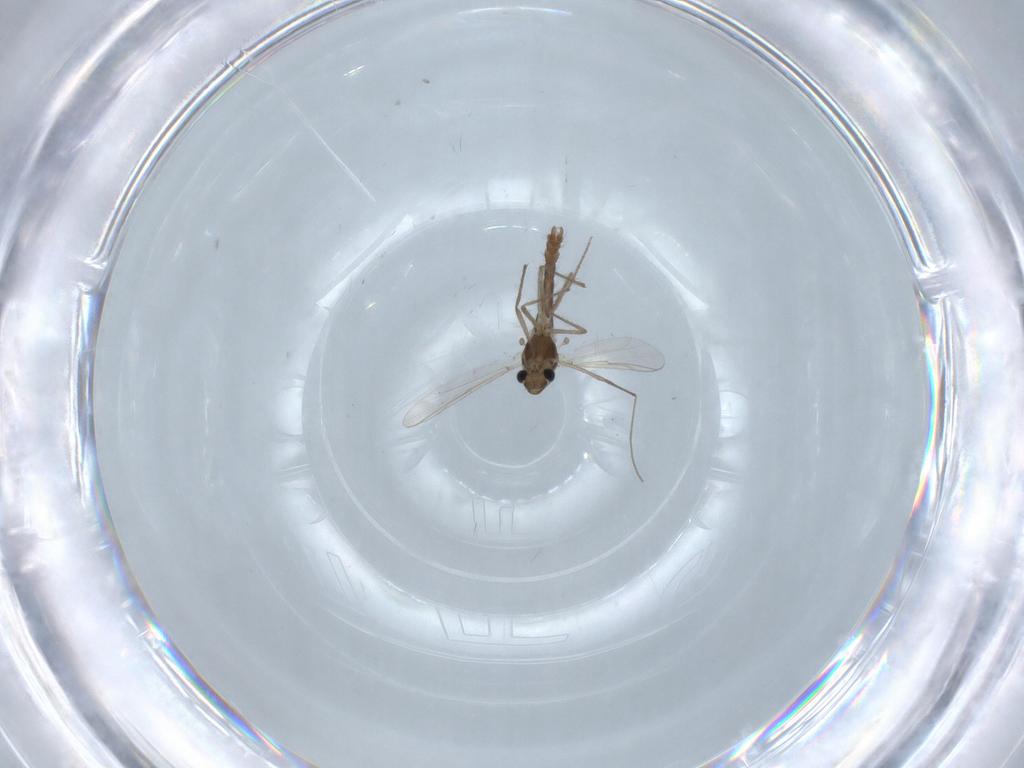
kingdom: Animalia
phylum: Arthropoda
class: Insecta
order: Diptera
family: Chironomidae
